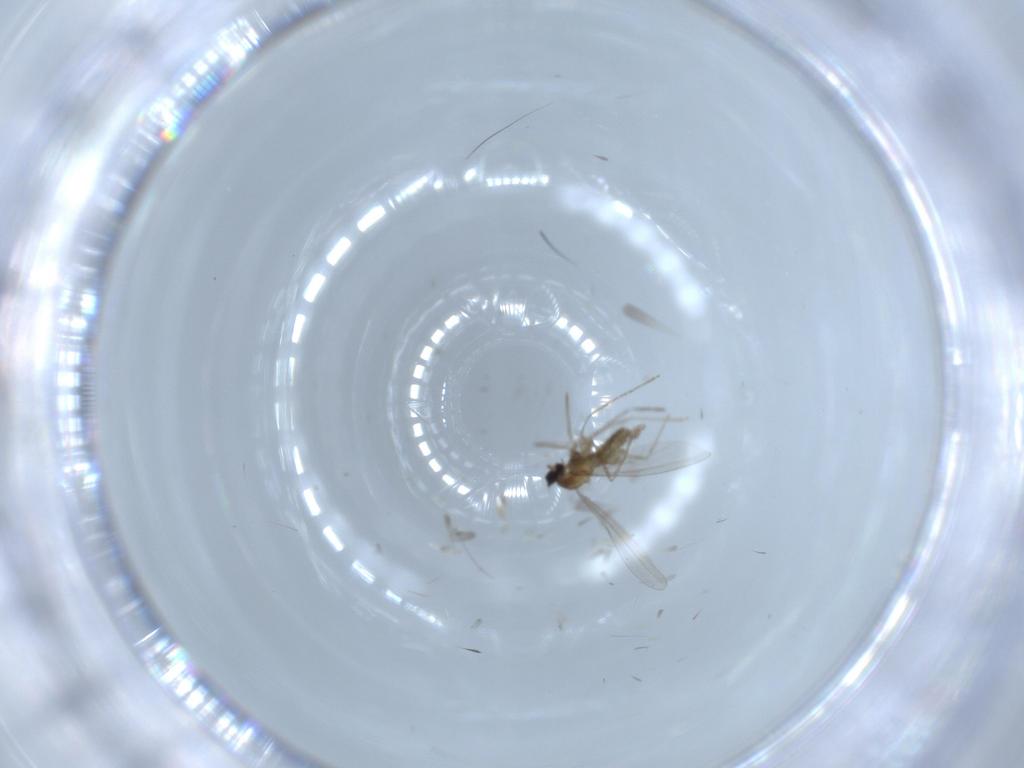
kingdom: Animalia
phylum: Arthropoda
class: Insecta
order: Diptera
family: Cecidomyiidae
